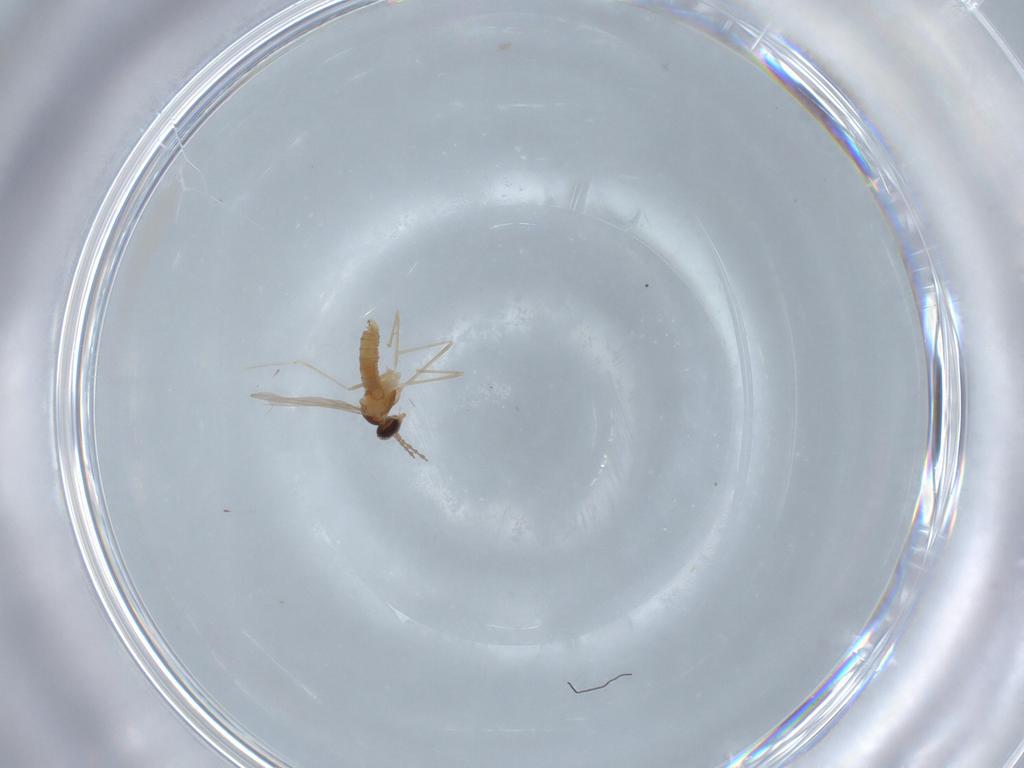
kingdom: Animalia
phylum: Arthropoda
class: Insecta
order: Diptera
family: Cecidomyiidae
